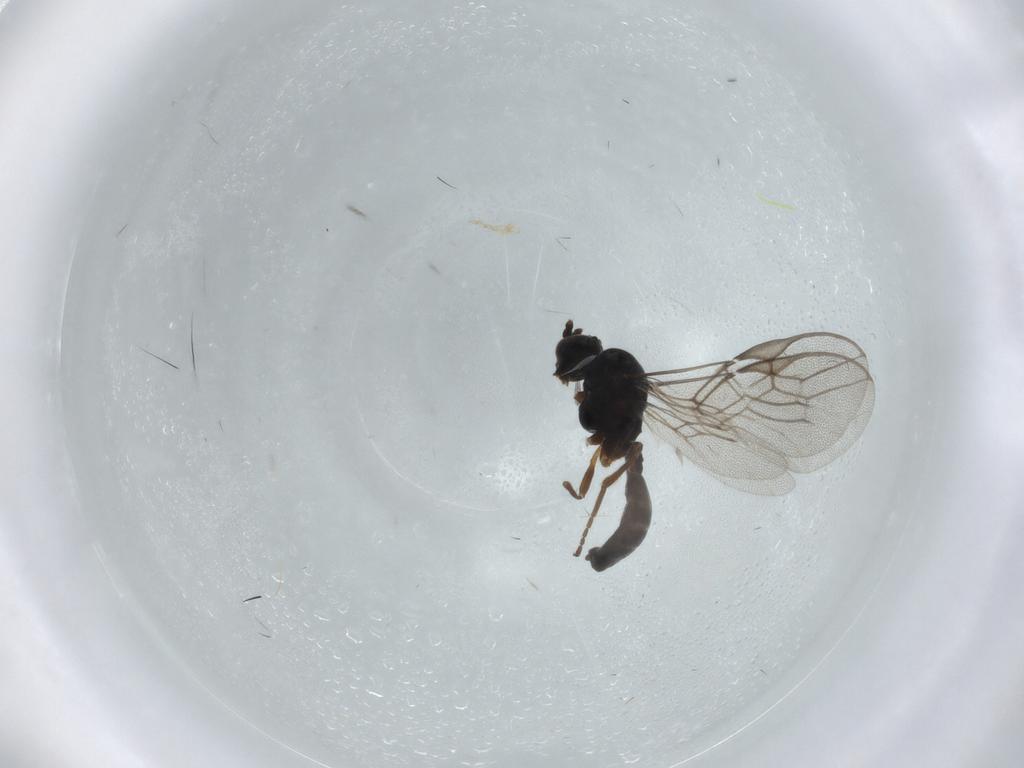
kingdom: Animalia
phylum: Arthropoda
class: Insecta
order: Hymenoptera
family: Braconidae
